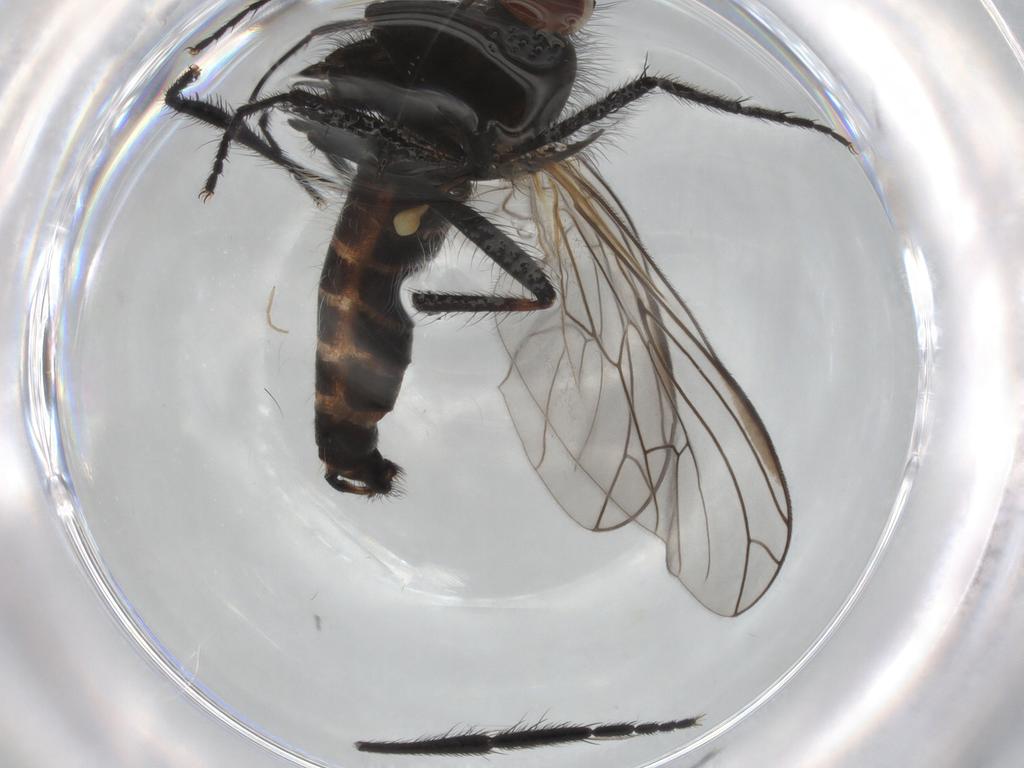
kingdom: Animalia
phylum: Arthropoda
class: Insecta
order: Diptera
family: Empididae
